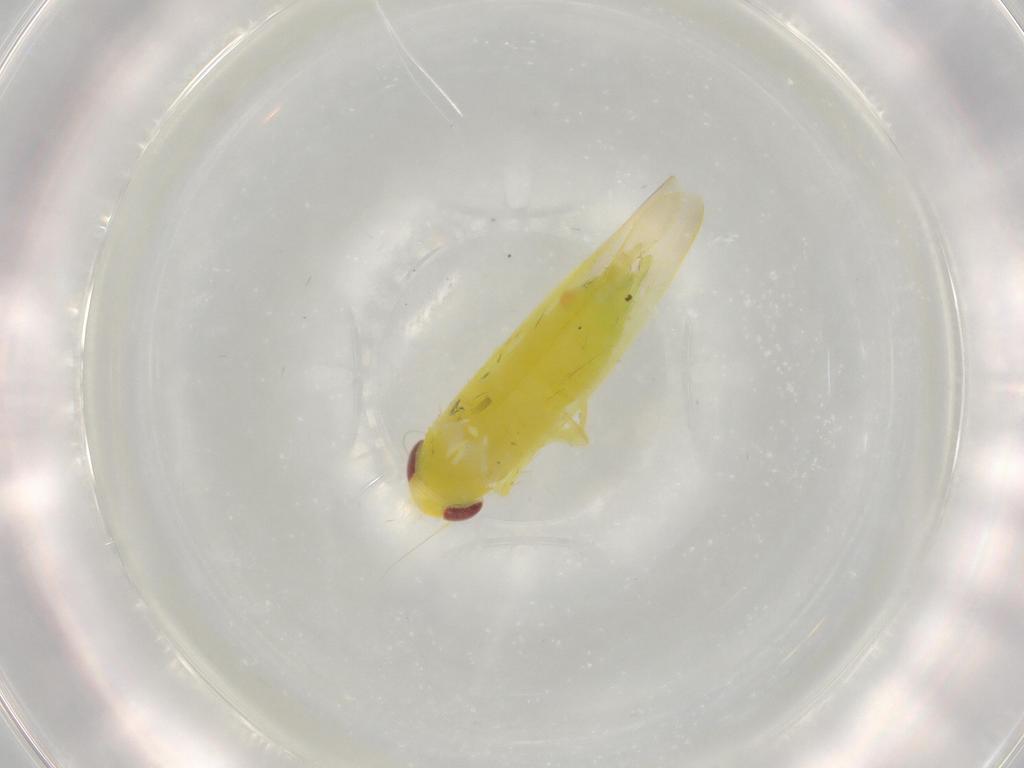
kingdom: Animalia
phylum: Arthropoda
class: Insecta
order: Hemiptera
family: Cicadellidae
